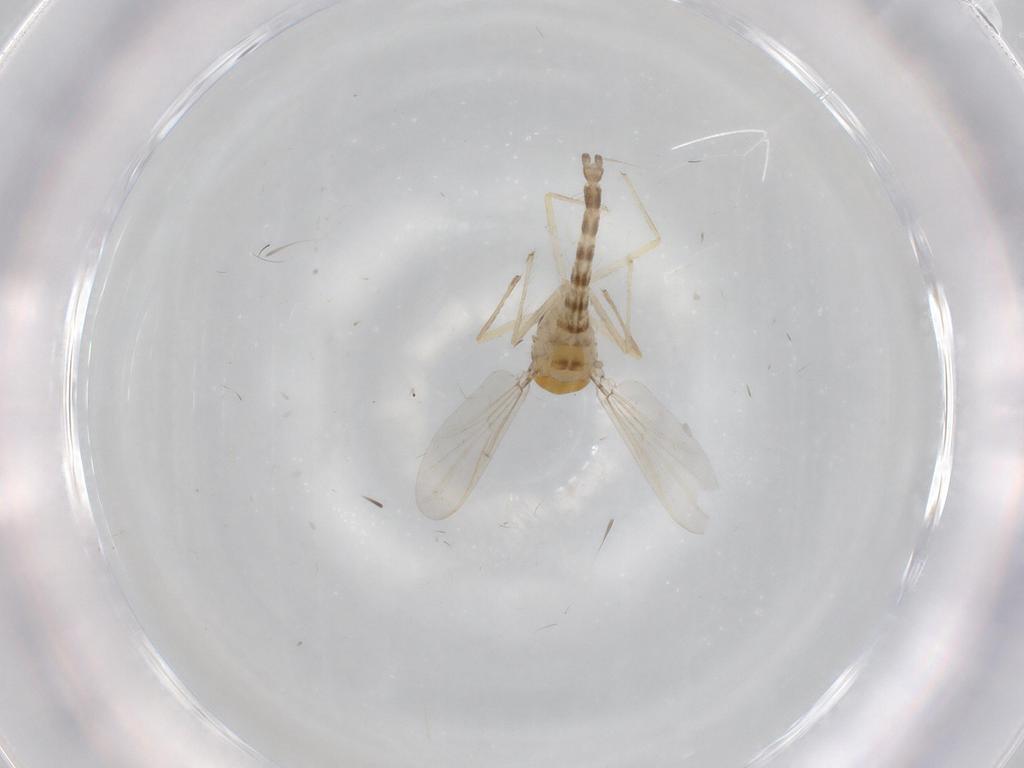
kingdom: Animalia
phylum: Arthropoda
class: Insecta
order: Diptera
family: Chironomidae
